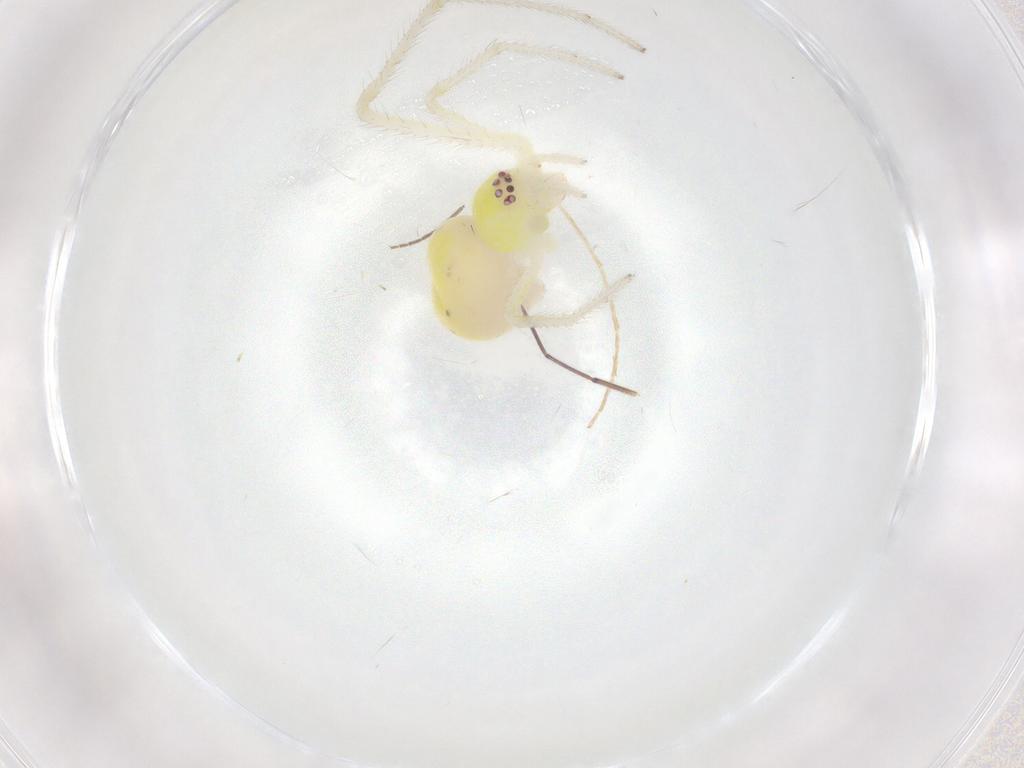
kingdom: Animalia
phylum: Arthropoda
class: Arachnida
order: Araneae
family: Theridiidae
